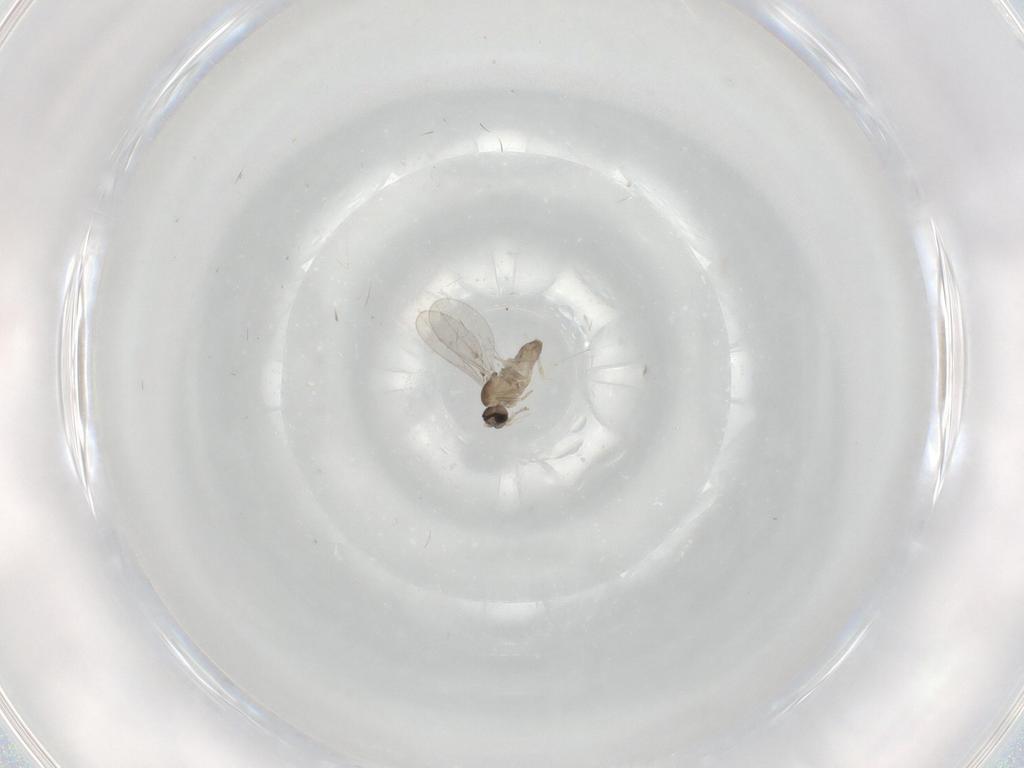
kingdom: Animalia
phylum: Arthropoda
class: Insecta
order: Diptera
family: Cecidomyiidae
